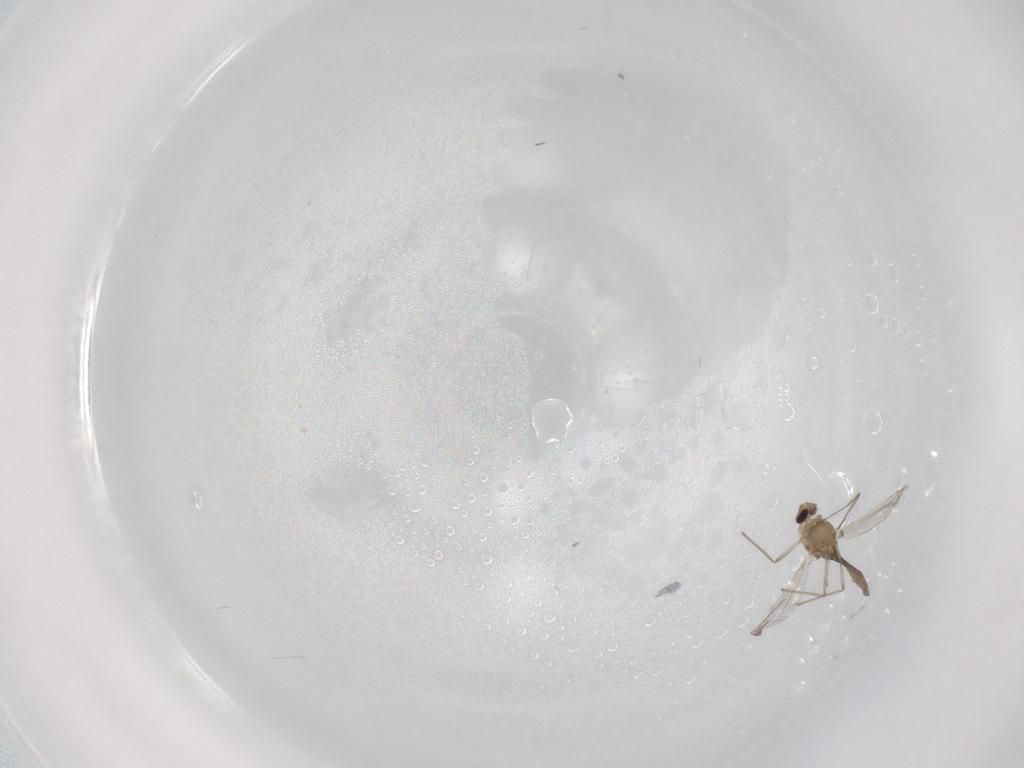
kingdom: Animalia
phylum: Arthropoda
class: Insecta
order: Diptera
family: Chironomidae
